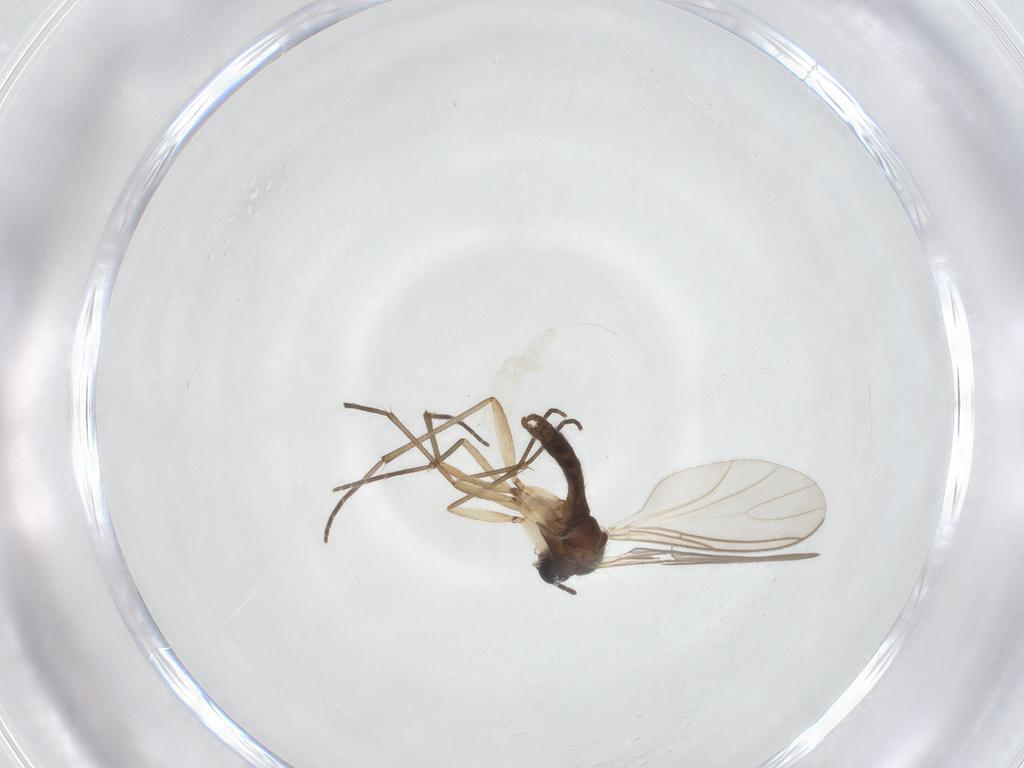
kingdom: Animalia
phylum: Arthropoda
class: Insecta
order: Diptera
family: Sciaridae
